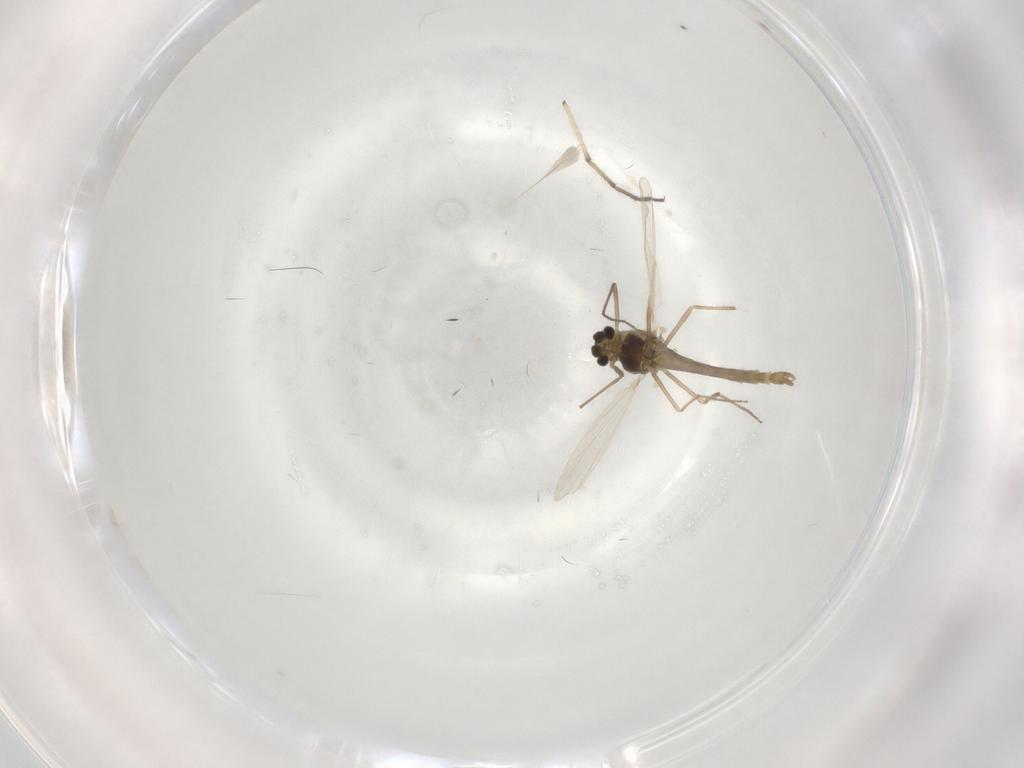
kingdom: Animalia
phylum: Arthropoda
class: Insecta
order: Diptera
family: Chironomidae
